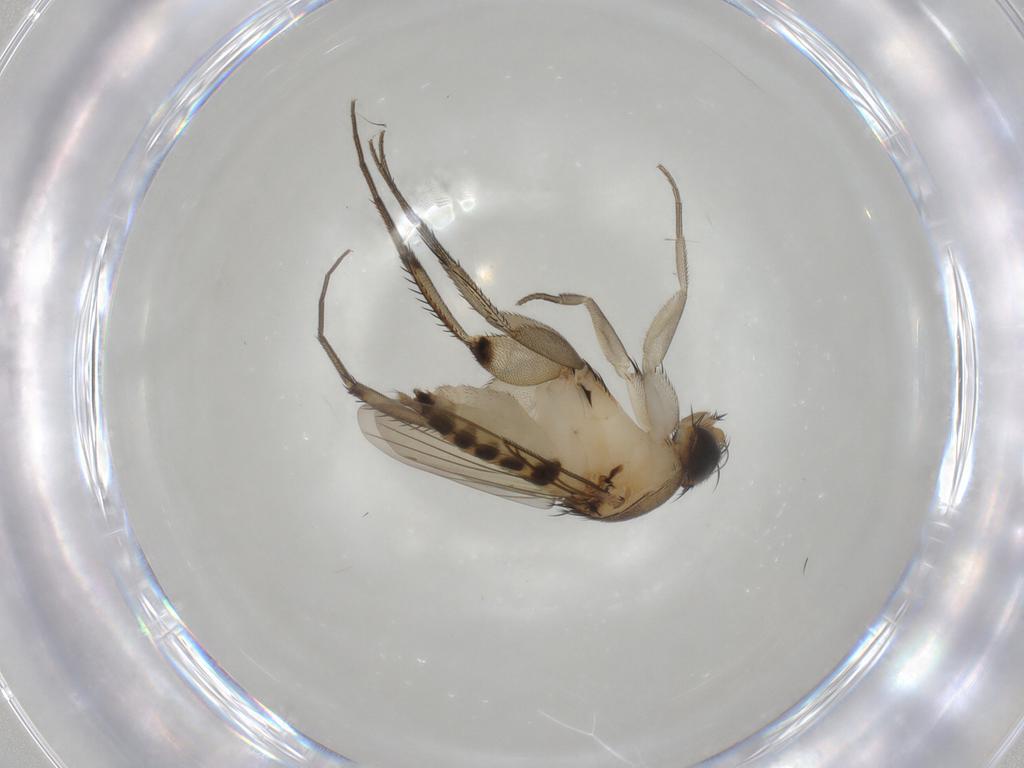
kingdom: Animalia
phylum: Arthropoda
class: Insecta
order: Diptera
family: Phoridae
